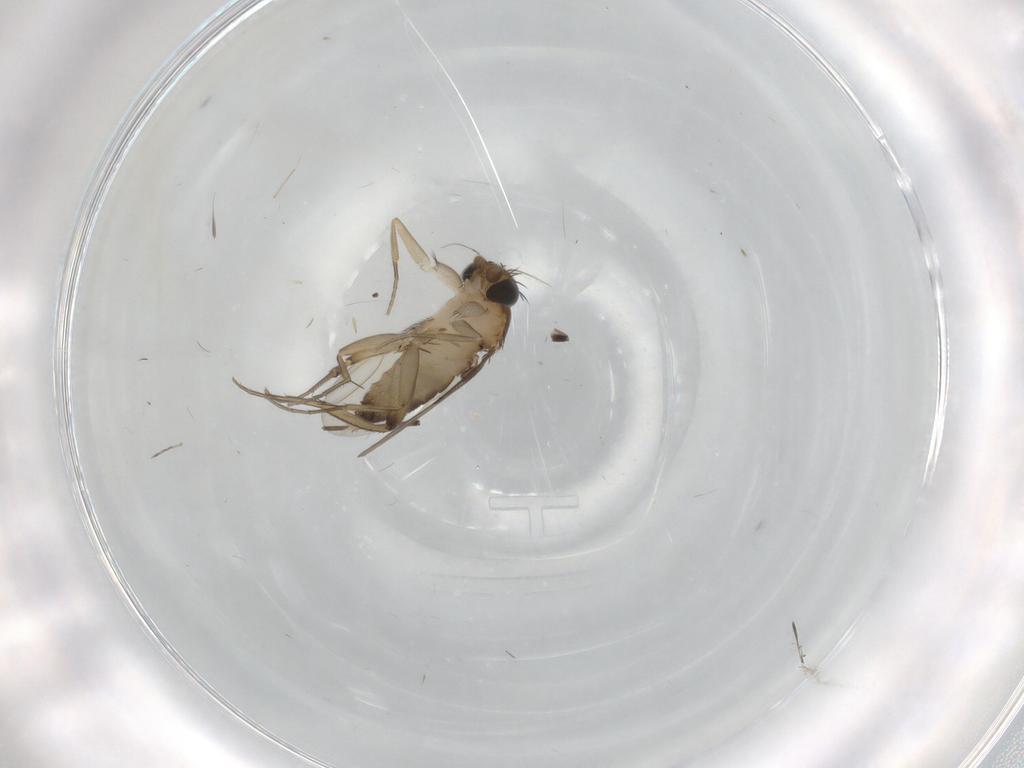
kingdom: Animalia
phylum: Arthropoda
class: Insecta
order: Diptera
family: Phoridae
